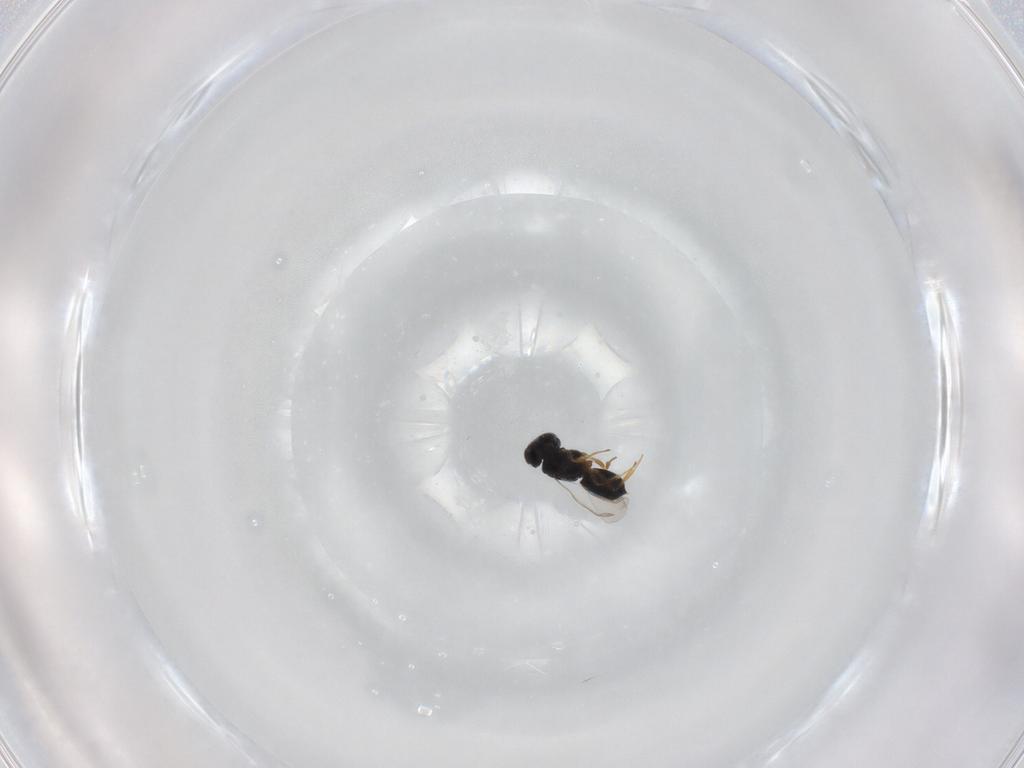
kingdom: Animalia
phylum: Arthropoda
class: Insecta
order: Hymenoptera
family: Scelionidae
